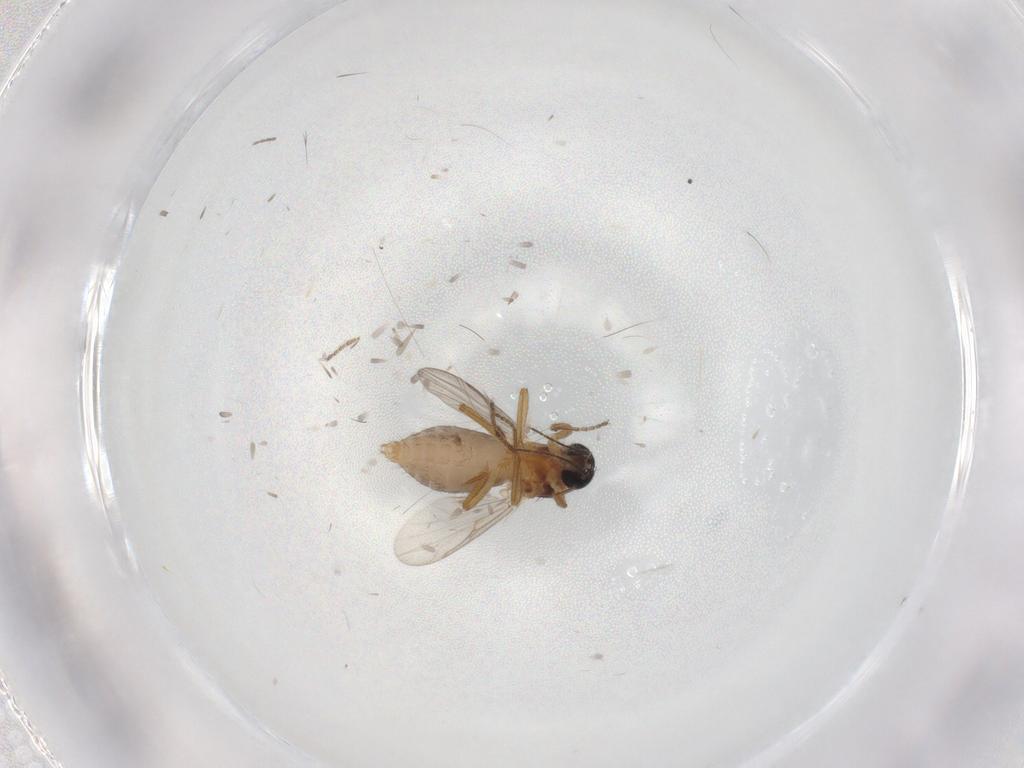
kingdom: Animalia
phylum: Arthropoda
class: Insecta
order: Diptera
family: Ceratopogonidae
